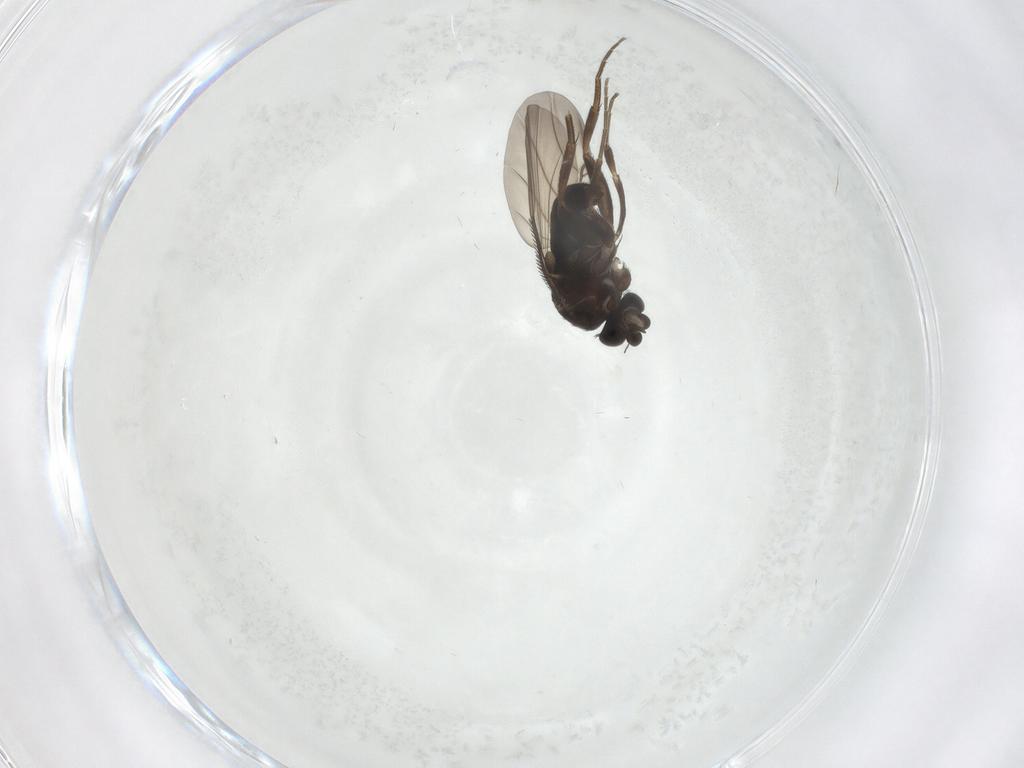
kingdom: Animalia
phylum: Arthropoda
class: Insecta
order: Diptera
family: Phoridae
